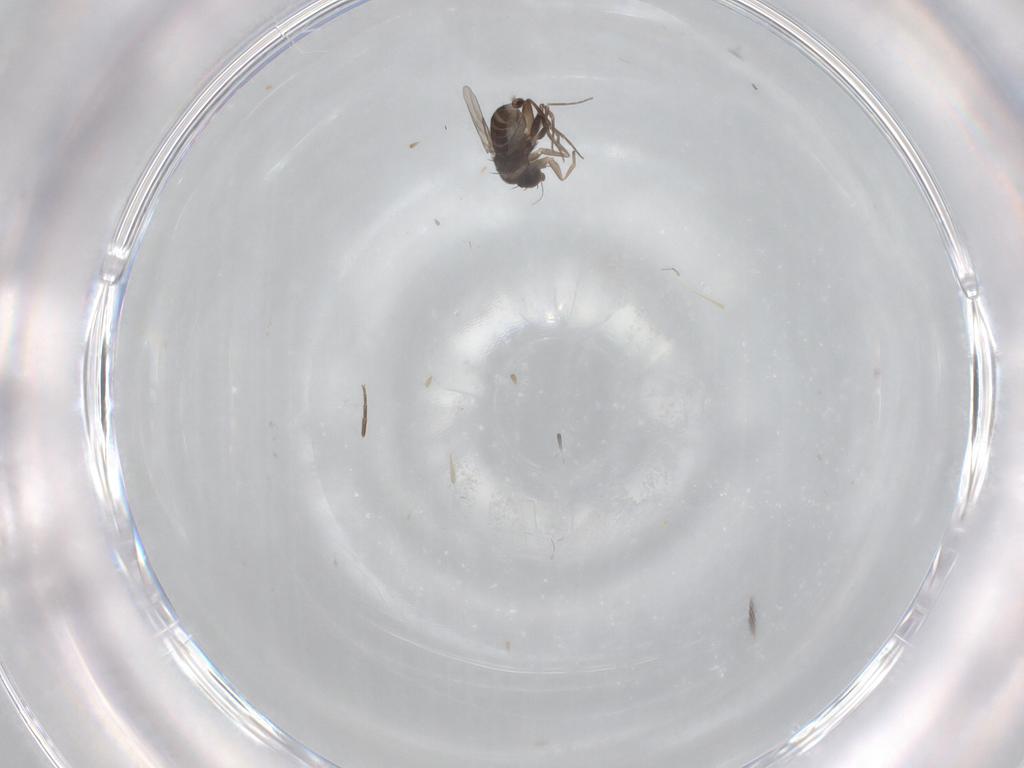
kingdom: Animalia
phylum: Arthropoda
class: Insecta
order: Diptera
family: Phoridae
